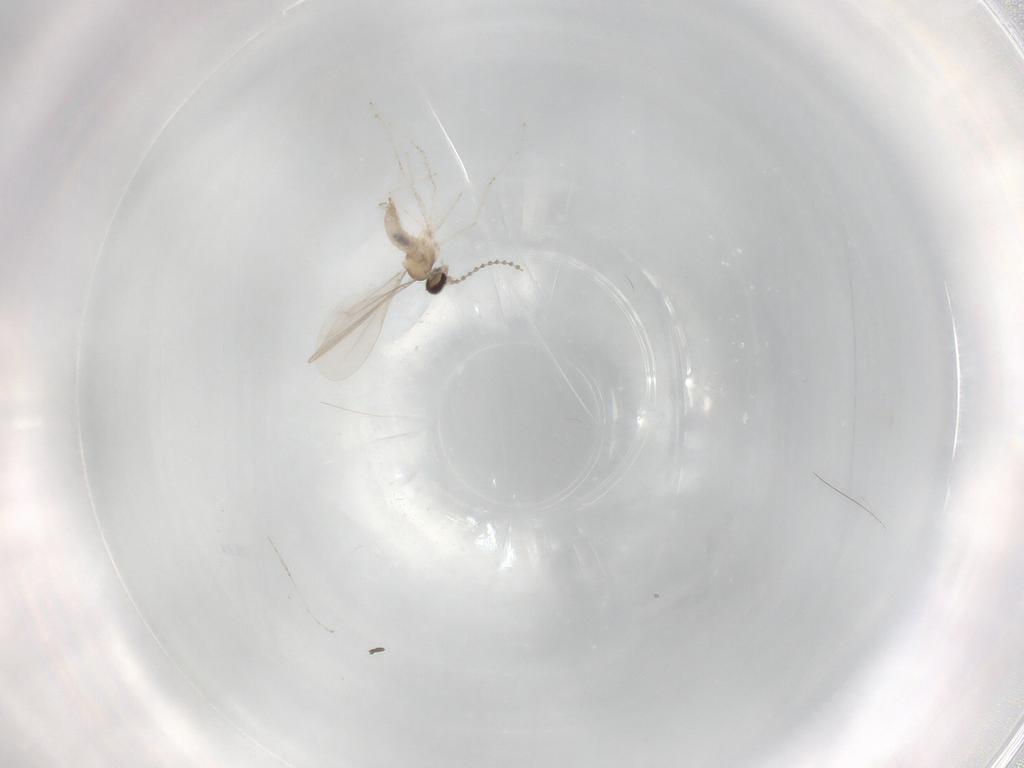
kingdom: Animalia
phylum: Arthropoda
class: Insecta
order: Diptera
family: Cecidomyiidae
